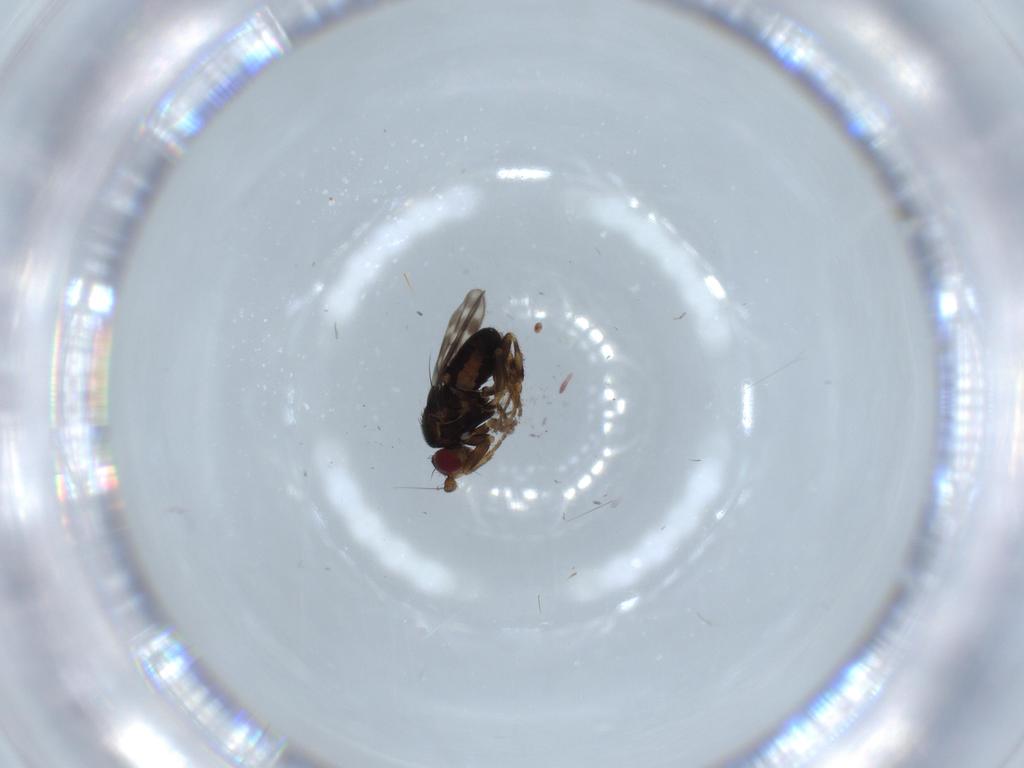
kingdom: Animalia
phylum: Arthropoda
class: Insecta
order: Diptera
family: Sphaeroceridae
